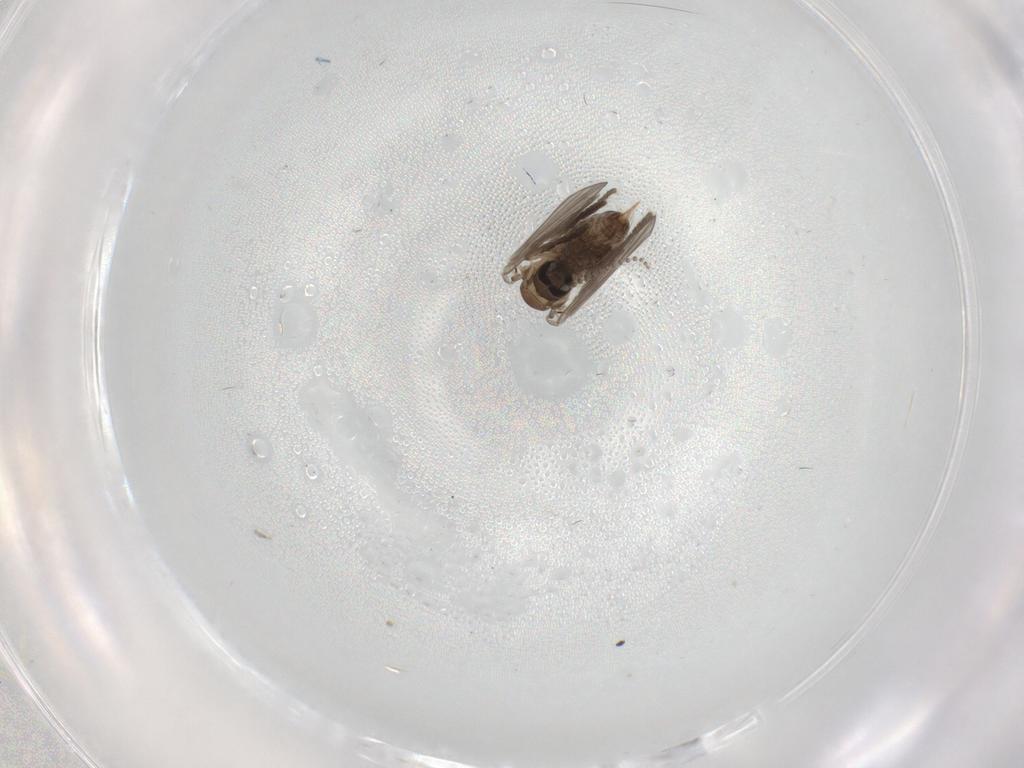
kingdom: Animalia
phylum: Arthropoda
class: Insecta
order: Diptera
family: Psychodidae
